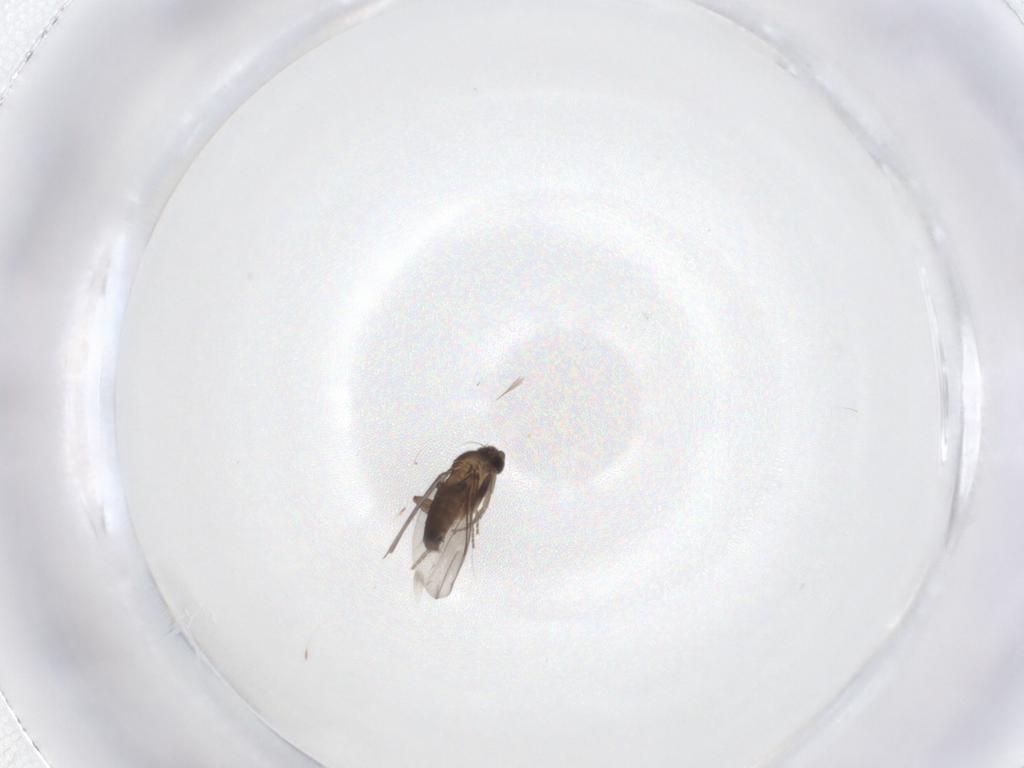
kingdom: Animalia
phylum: Arthropoda
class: Insecta
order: Diptera
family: Phoridae
